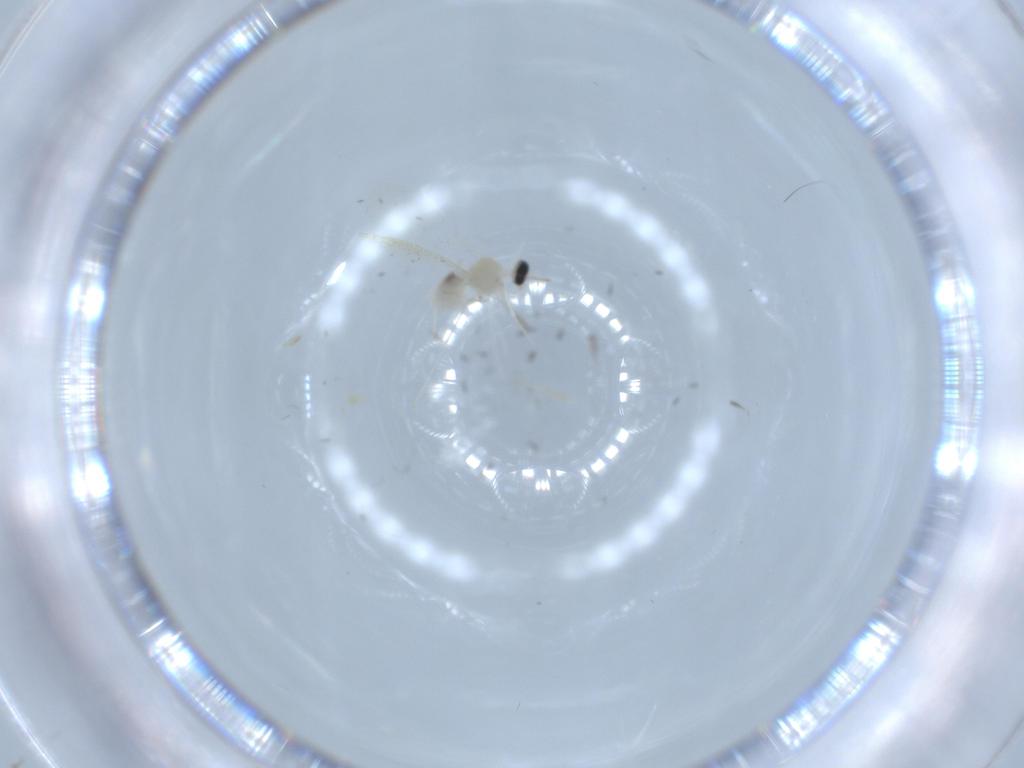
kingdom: Animalia
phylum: Arthropoda
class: Insecta
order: Diptera
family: Cecidomyiidae
